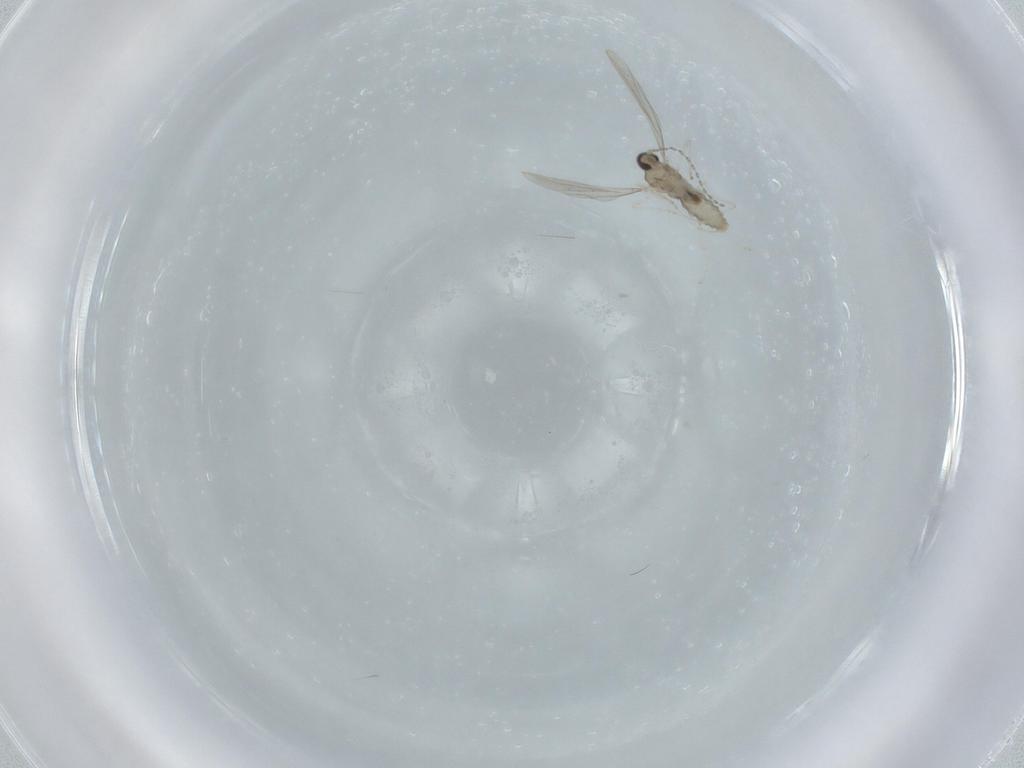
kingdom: Animalia
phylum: Arthropoda
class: Insecta
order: Diptera
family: Cecidomyiidae
